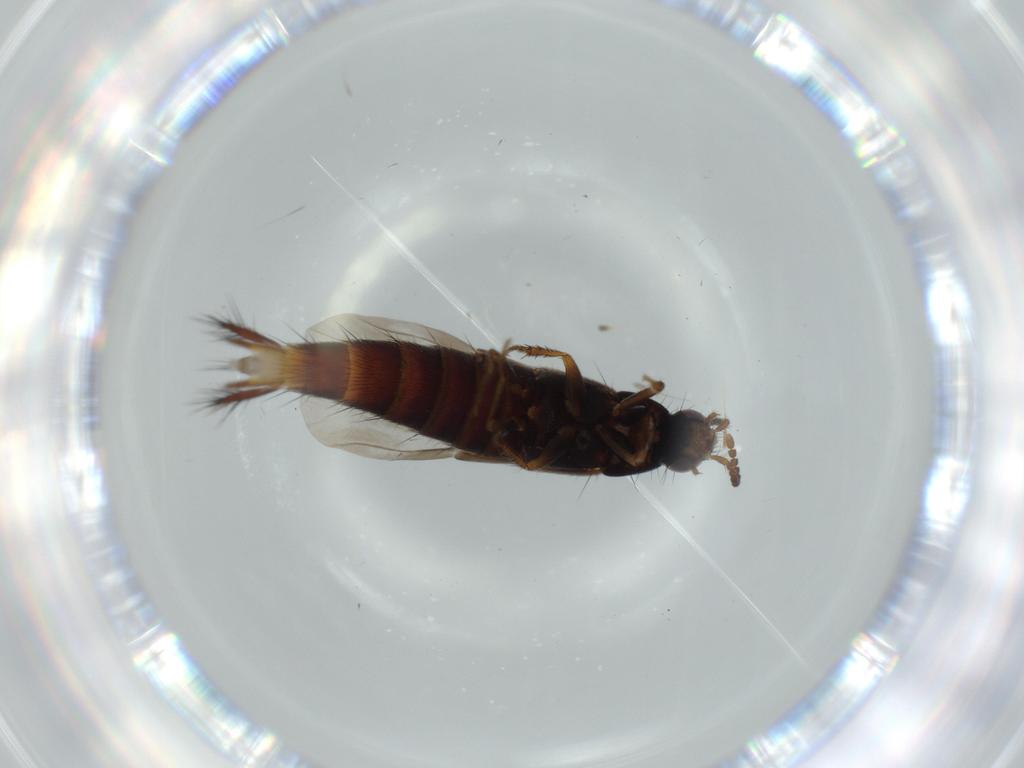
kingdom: Animalia
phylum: Arthropoda
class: Insecta
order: Coleoptera
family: Staphylinidae
